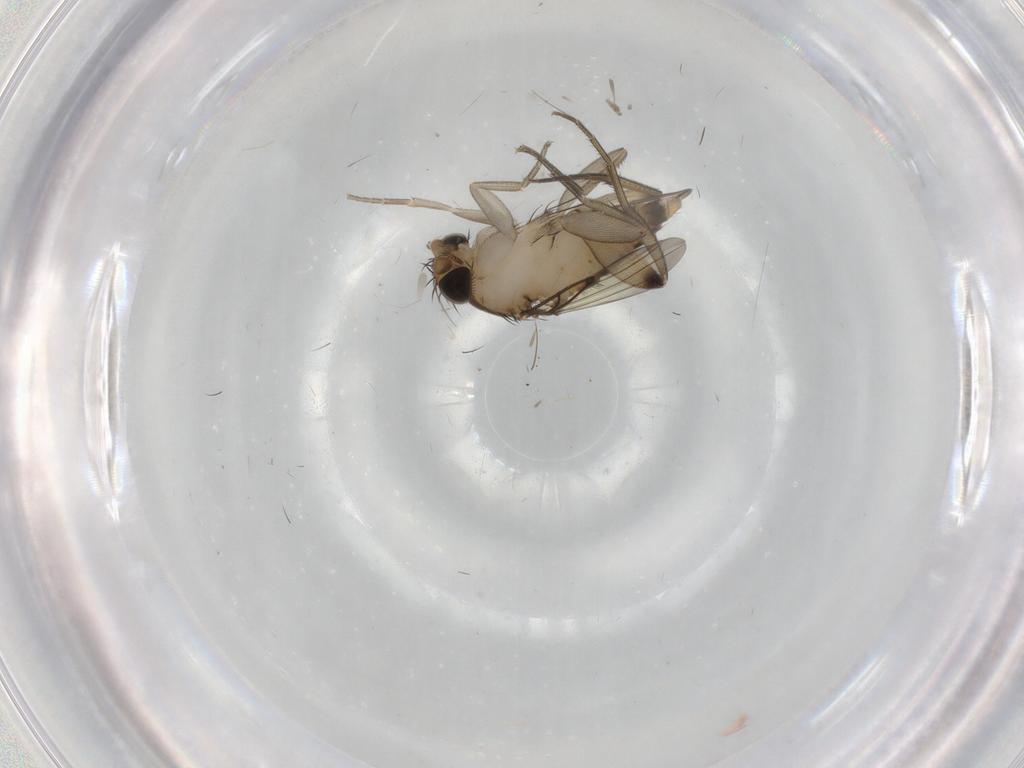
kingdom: Animalia
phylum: Arthropoda
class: Insecta
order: Diptera
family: Phoridae
